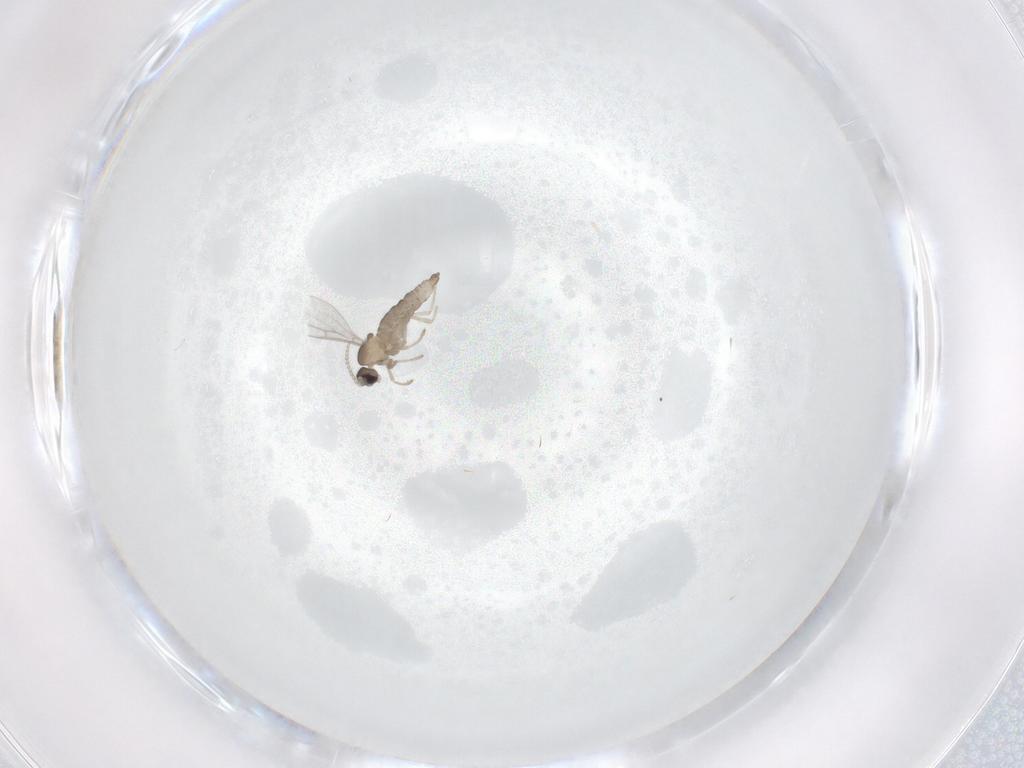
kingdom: Animalia
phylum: Arthropoda
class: Insecta
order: Diptera
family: Cecidomyiidae
